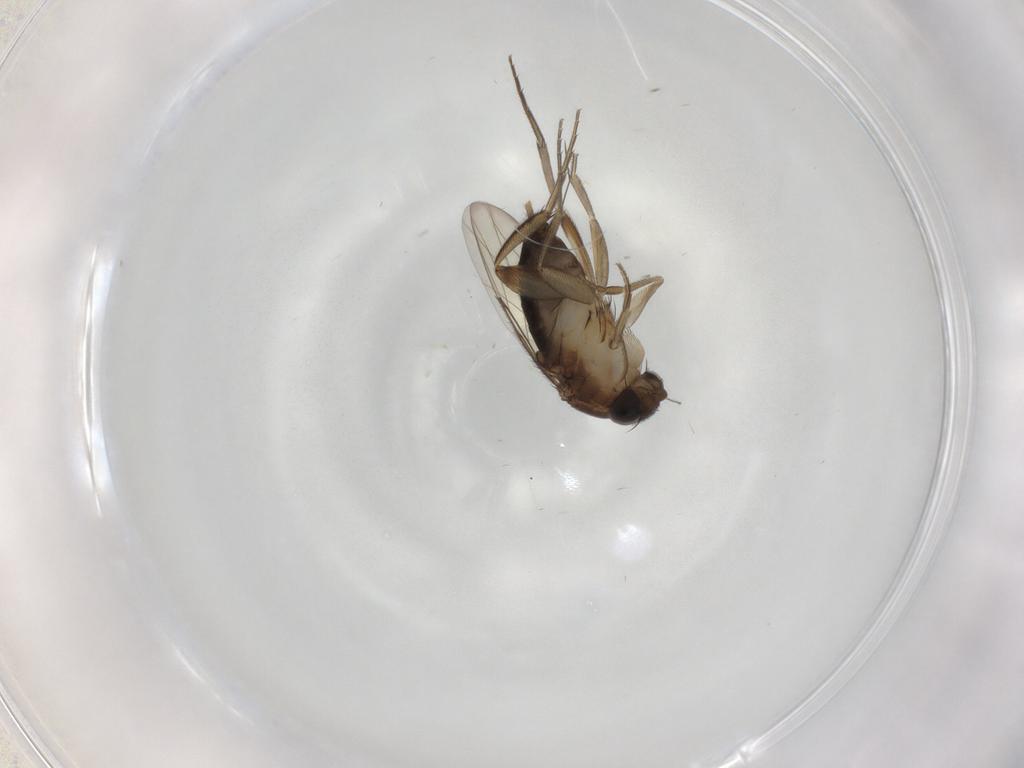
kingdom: Animalia
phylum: Arthropoda
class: Insecta
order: Diptera
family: Phoridae
